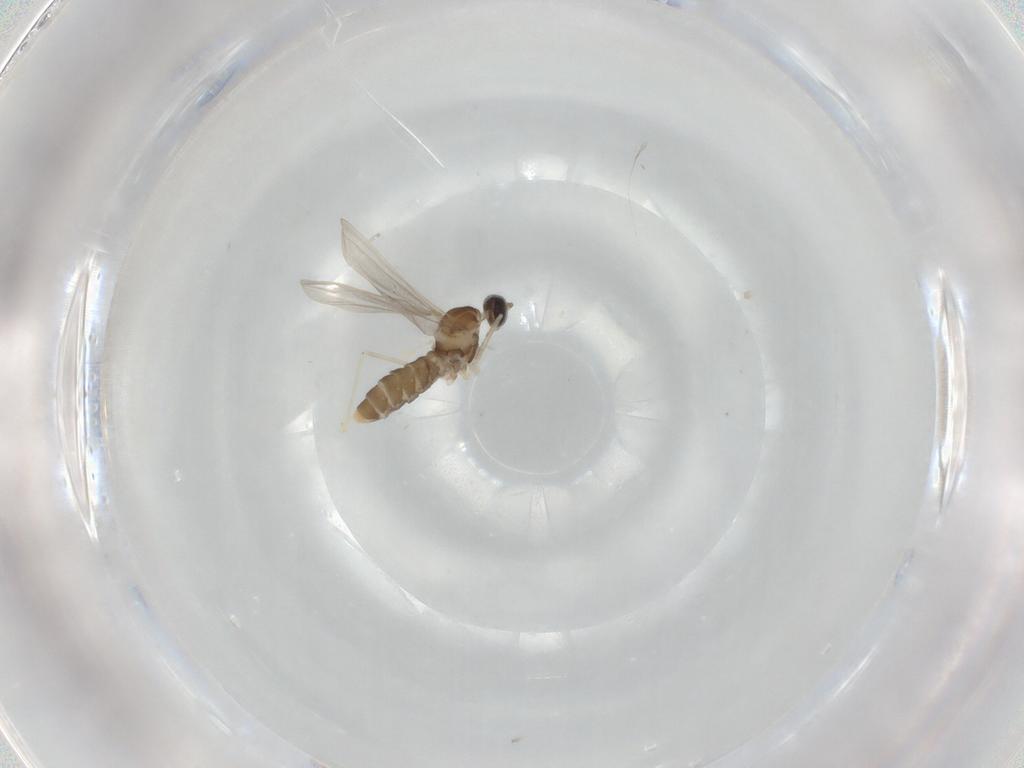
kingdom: Animalia
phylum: Arthropoda
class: Insecta
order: Diptera
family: Cecidomyiidae
